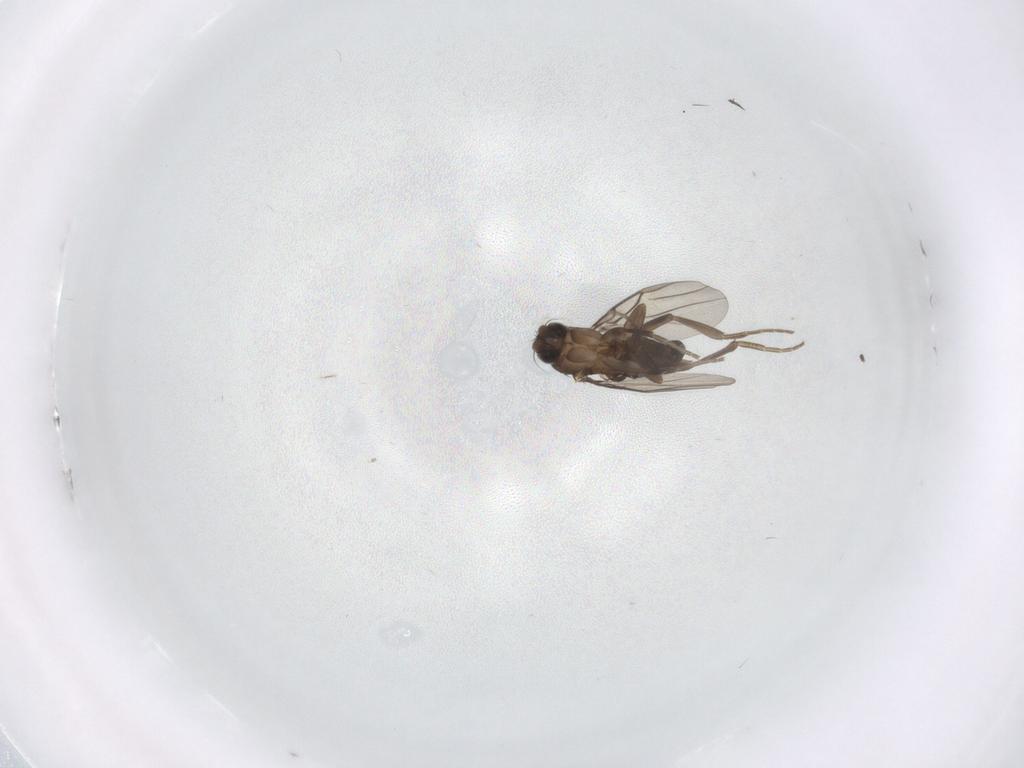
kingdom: Animalia
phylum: Arthropoda
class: Insecta
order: Diptera
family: Phoridae
